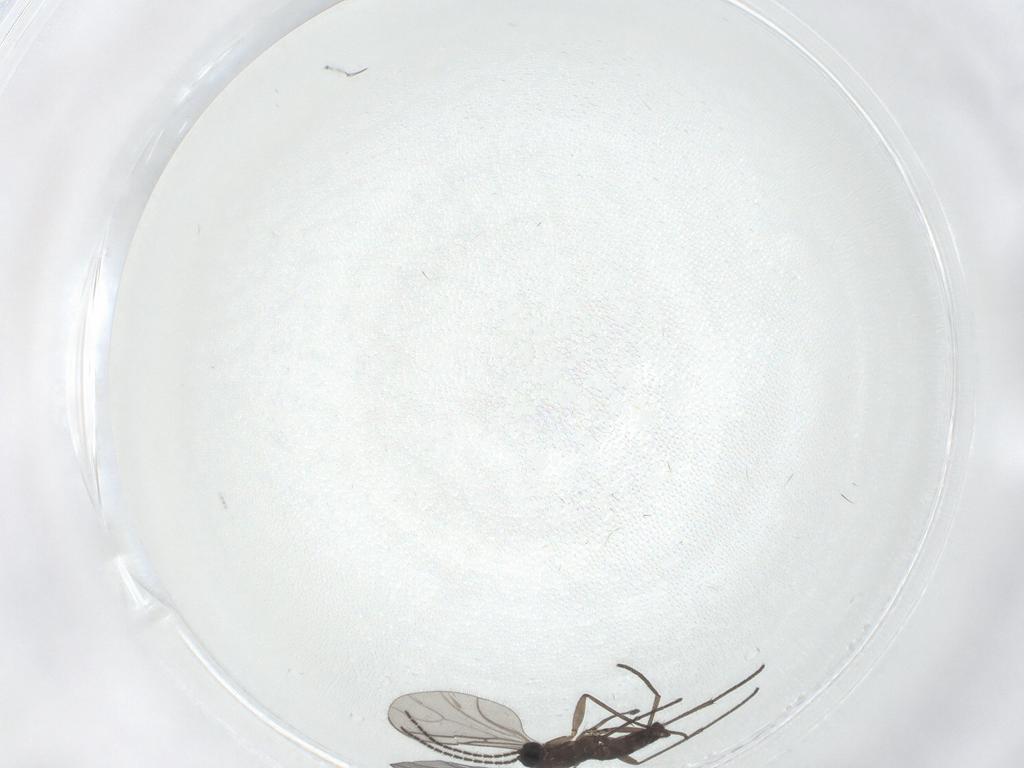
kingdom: Animalia
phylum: Arthropoda
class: Insecta
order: Diptera
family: Sciaridae
